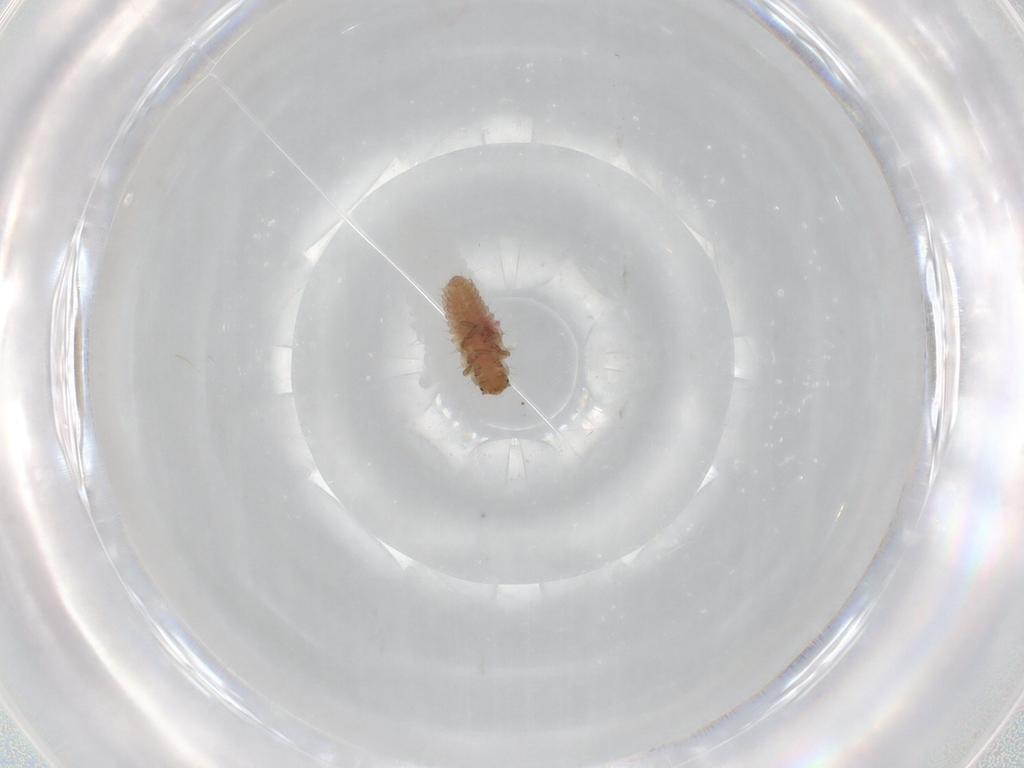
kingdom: Animalia
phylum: Arthropoda
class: Insecta
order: Coleoptera
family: Coccinellidae
